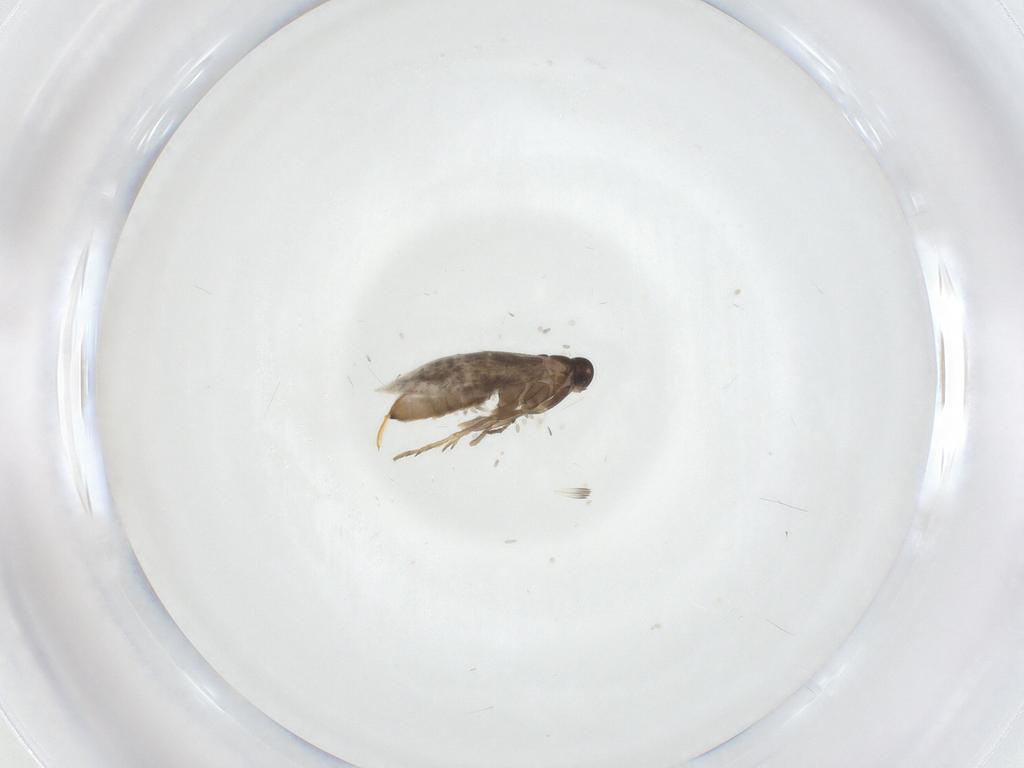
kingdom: Animalia
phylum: Arthropoda
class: Insecta
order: Lepidoptera
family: Heliozelidae
